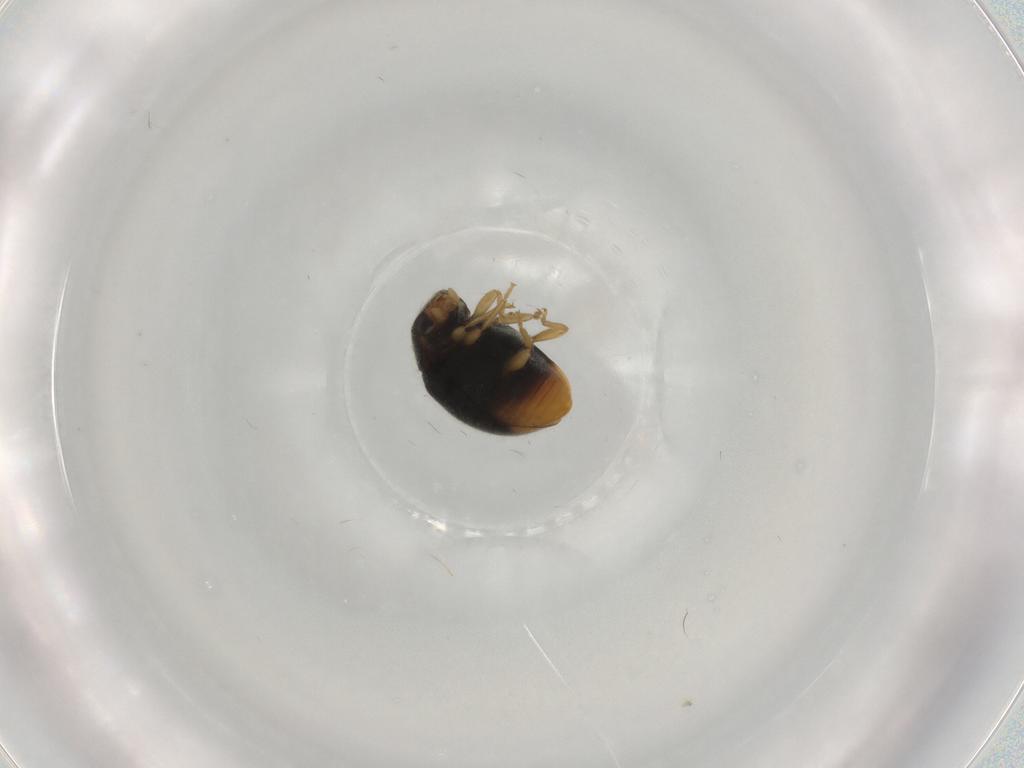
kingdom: Animalia
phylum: Arthropoda
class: Insecta
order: Coleoptera
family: Coccinellidae
